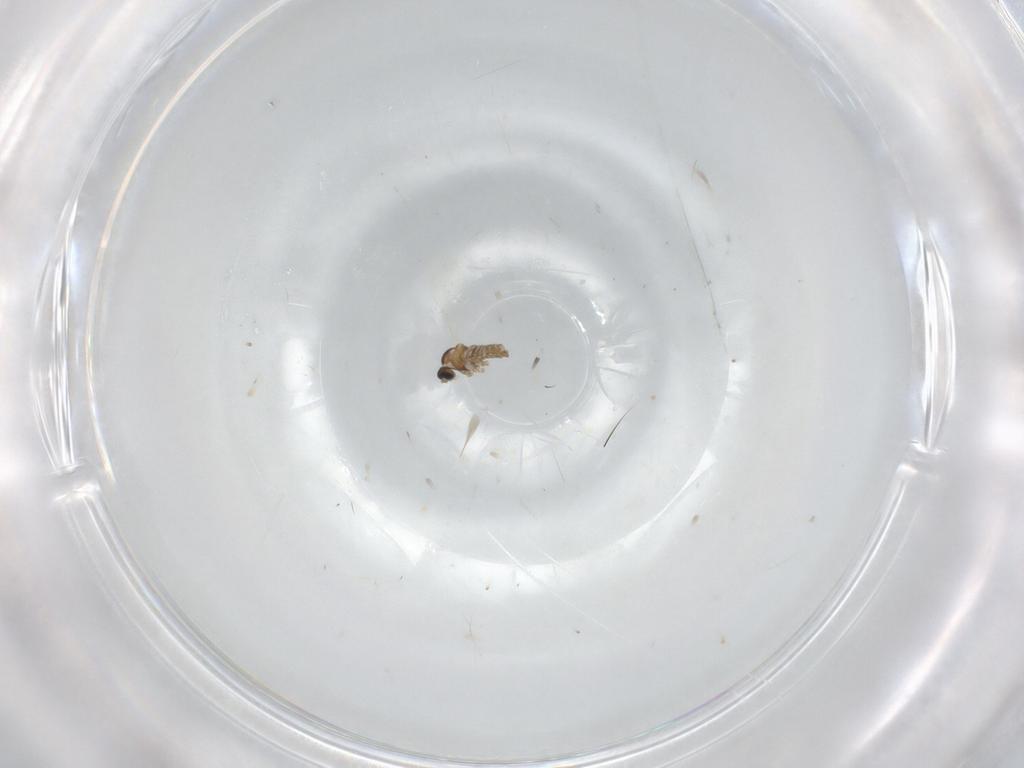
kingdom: Animalia
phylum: Arthropoda
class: Insecta
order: Diptera
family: Cecidomyiidae
